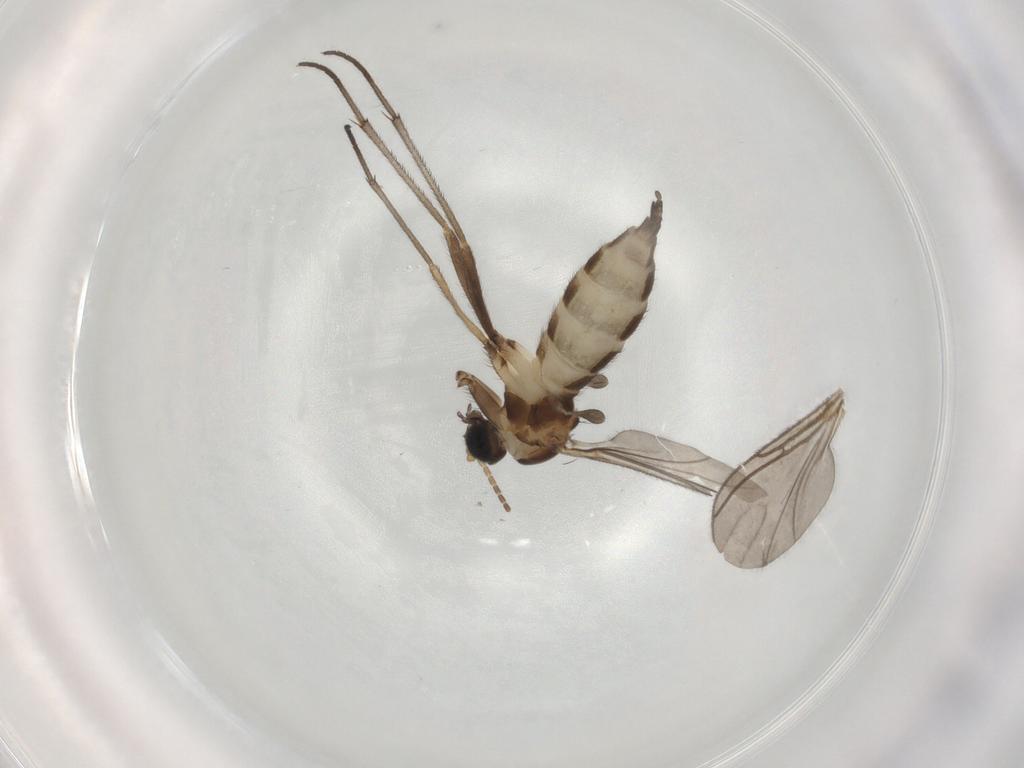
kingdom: Animalia
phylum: Arthropoda
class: Insecta
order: Diptera
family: Sciaridae
